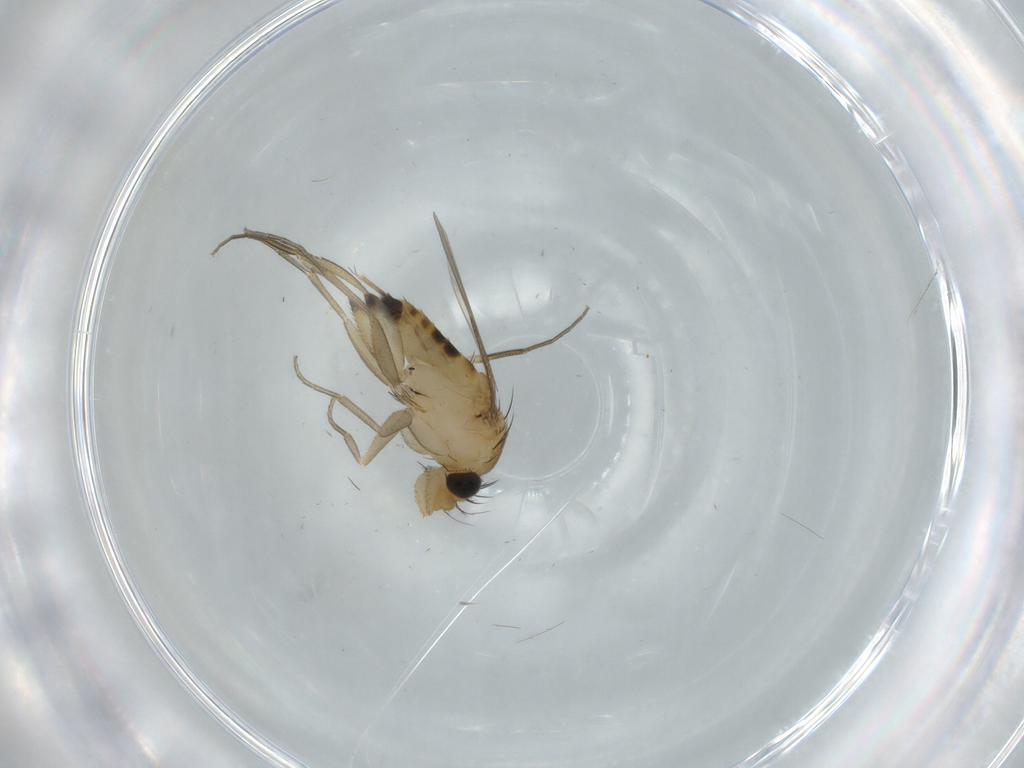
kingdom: Animalia
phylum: Arthropoda
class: Insecta
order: Diptera
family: Phoridae
